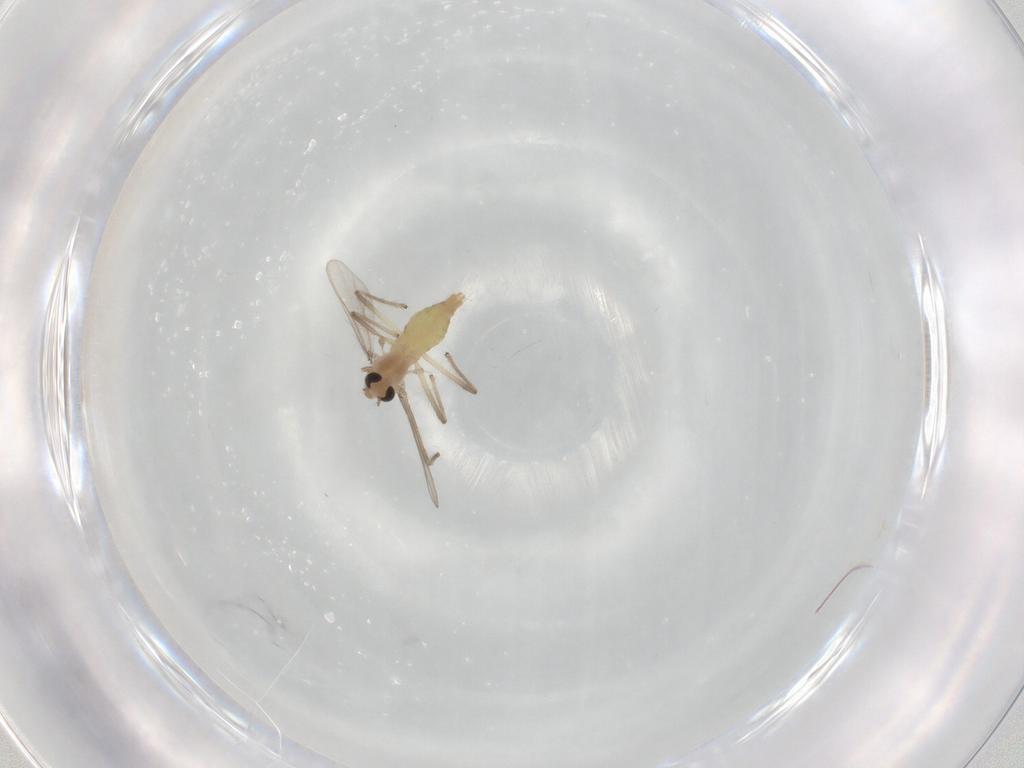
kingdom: Animalia
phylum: Arthropoda
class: Insecta
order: Diptera
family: Chironomidae
